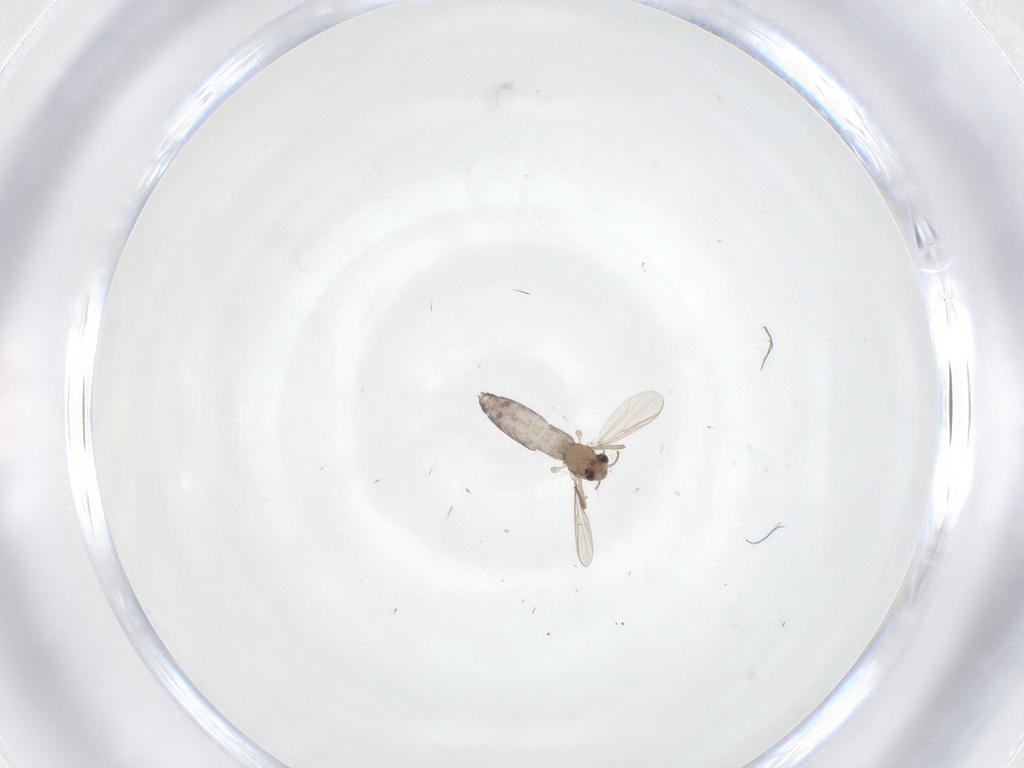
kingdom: Animalia
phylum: Arthropoda
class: Insecta
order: Diptera
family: Chironomidae
